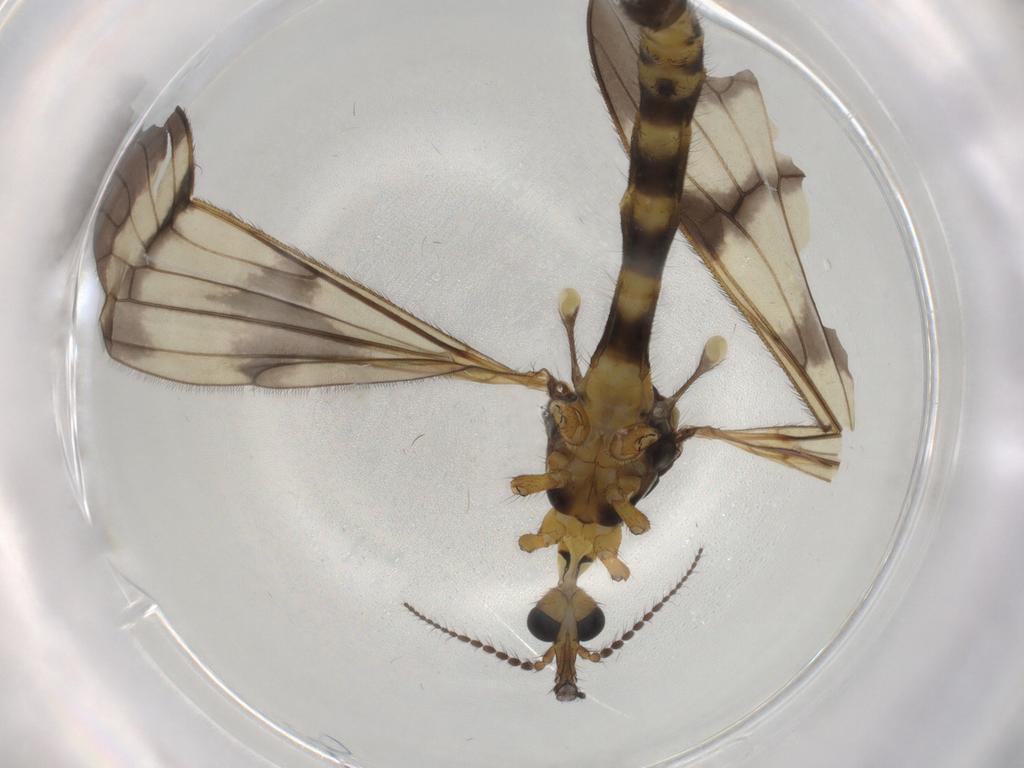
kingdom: Animalia
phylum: Arthropoda
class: Insecta
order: Diptera
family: Limoniidae
